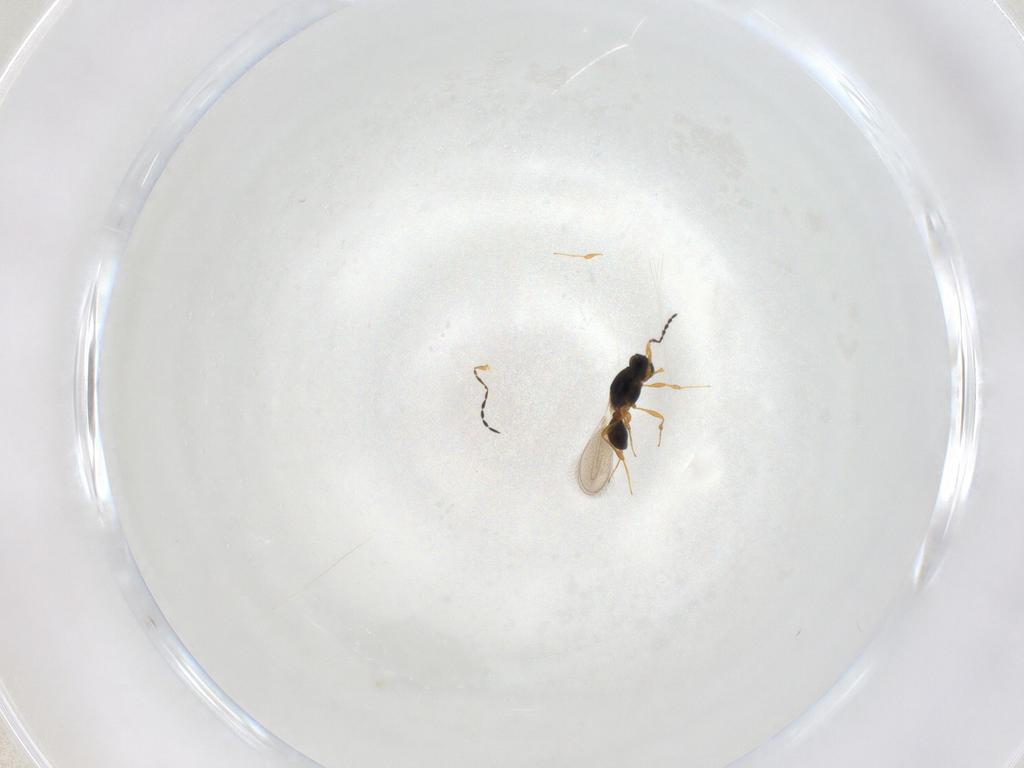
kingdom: Animalia
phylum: Arthropoda
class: Insecta
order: Hymenoptera
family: Platygastridae
